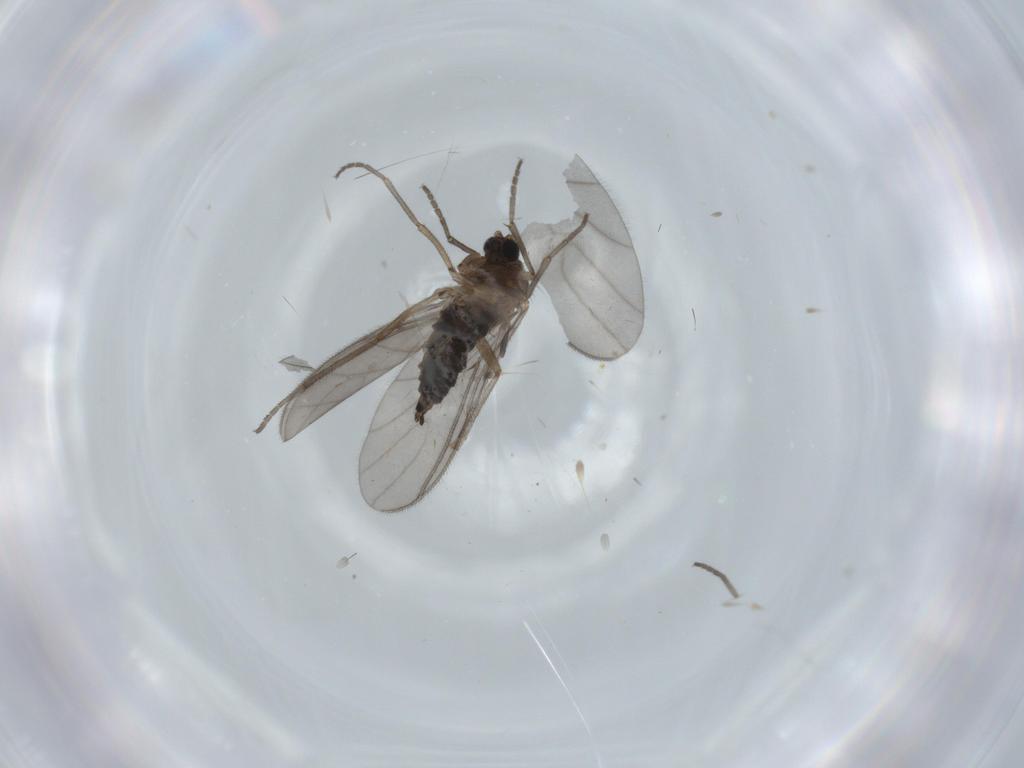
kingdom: Animalia
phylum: Arthropoda
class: Insecta
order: Diptera
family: Sciaridae
